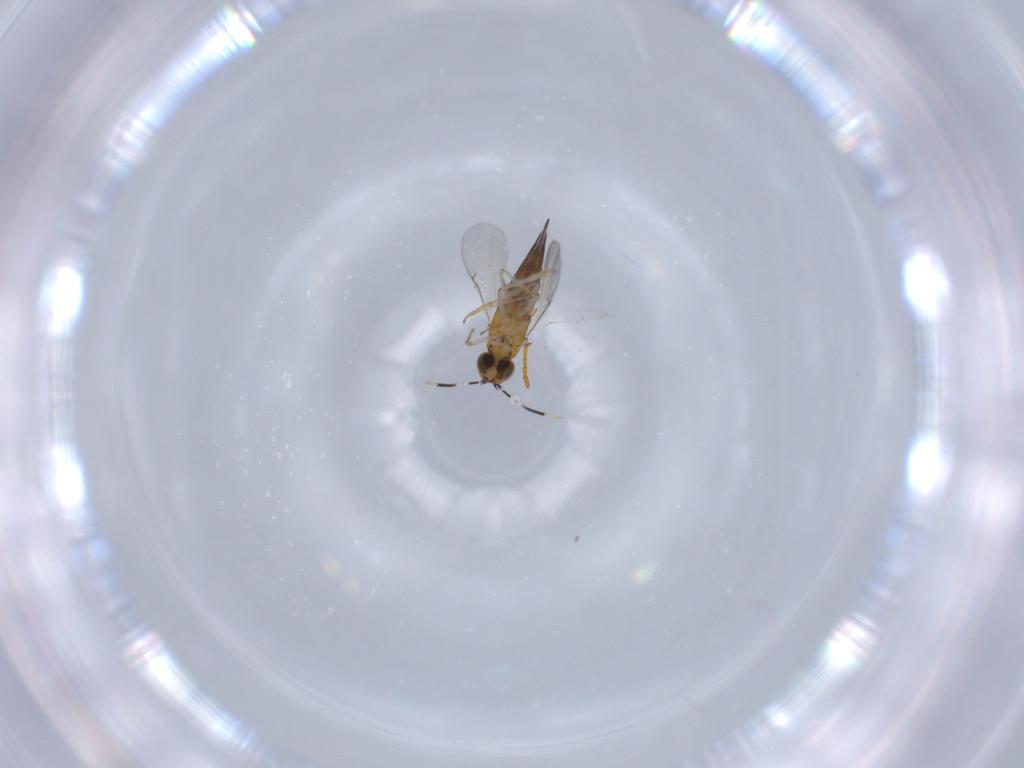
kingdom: Animalia
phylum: Arthropoda
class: Insecta
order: Hymenoptera
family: Diapriidae
